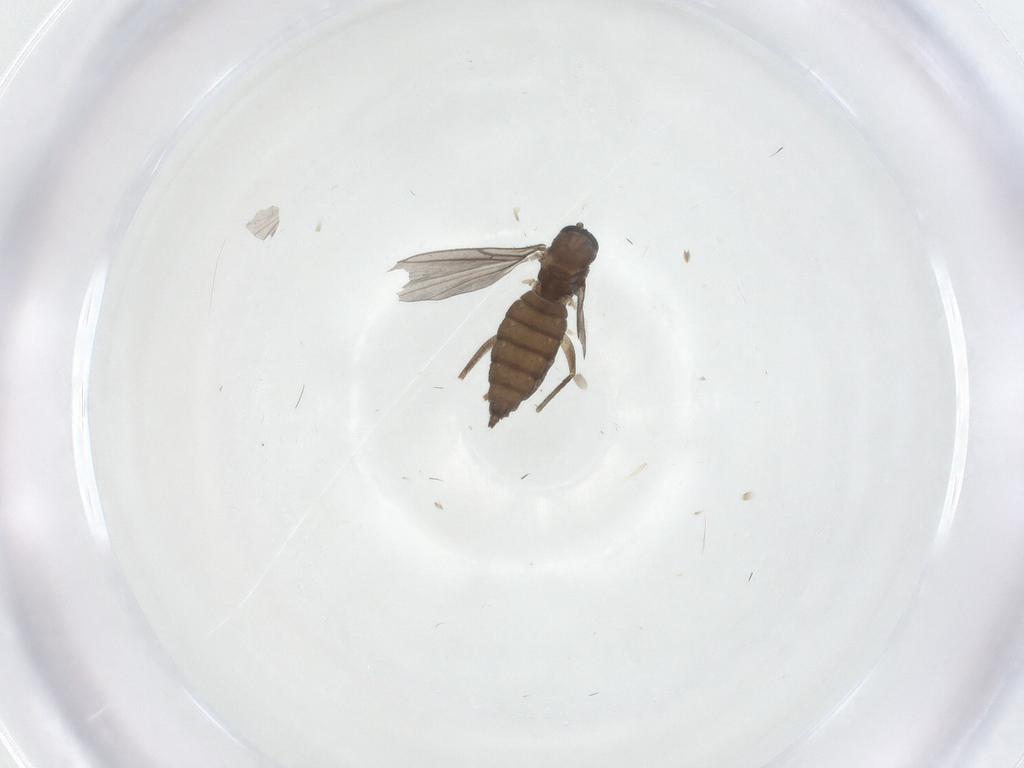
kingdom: Animalia
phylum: Arthropoda
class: Insecta
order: Diptera
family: Sciaridae
